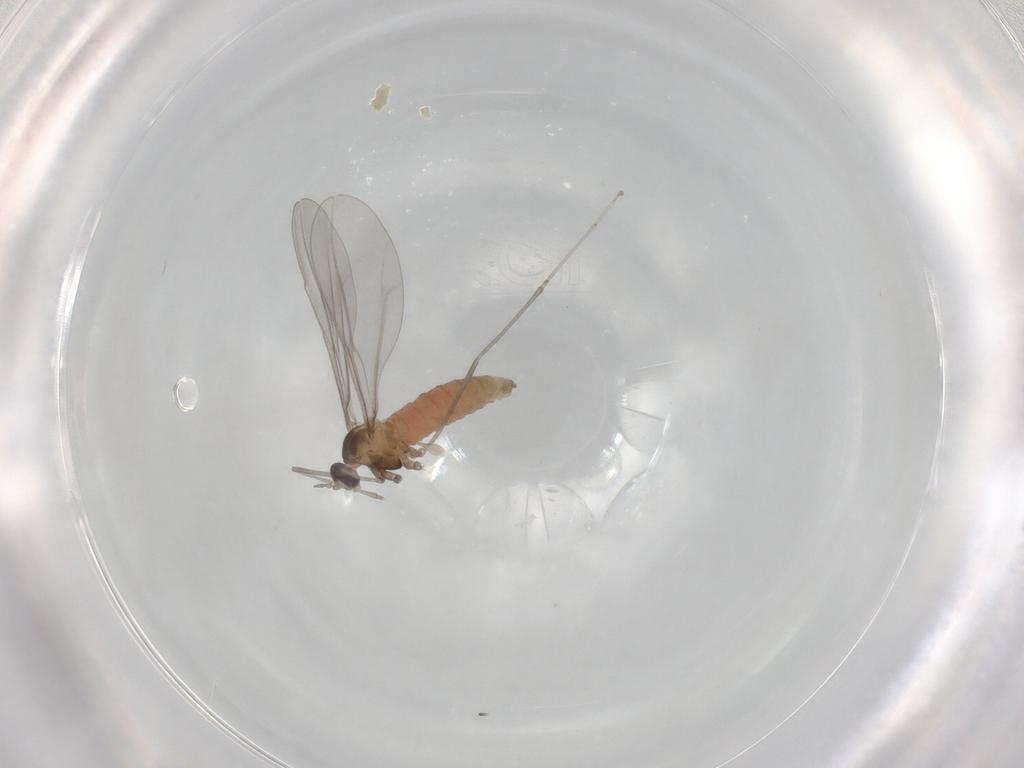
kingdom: Animalia
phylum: Arthropoda
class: Insecta
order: Diptera
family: Cecidomyiidae
